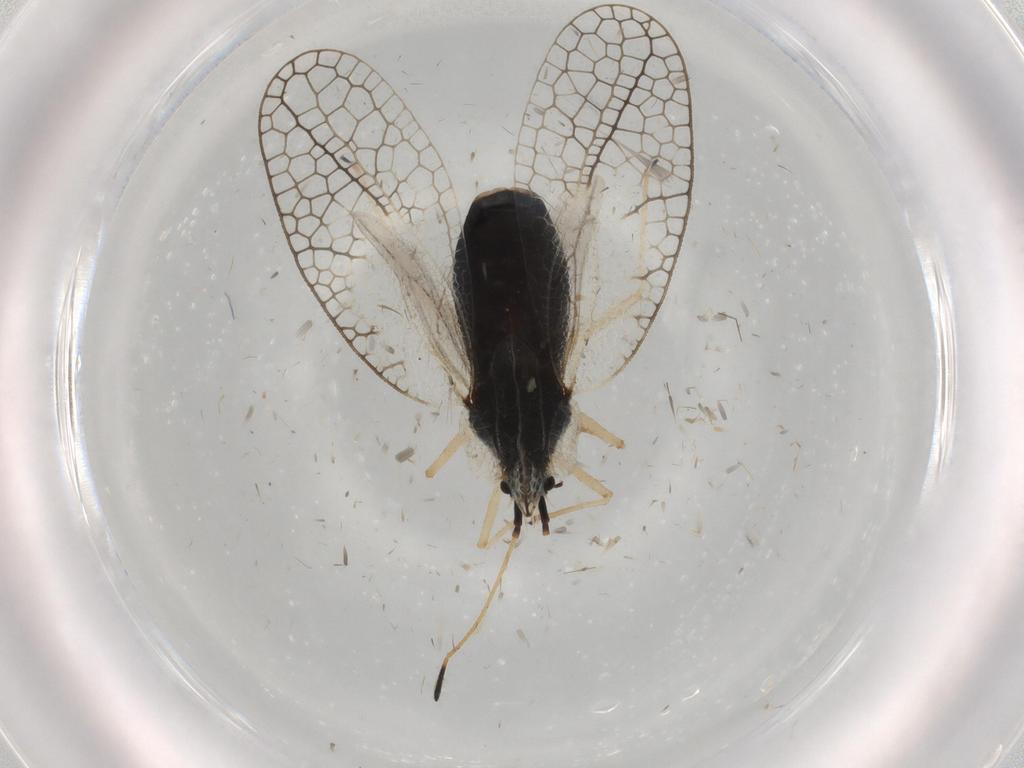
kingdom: Animalia
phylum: Arthropoda
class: Insecta
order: Hemiptera
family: Tingidae
